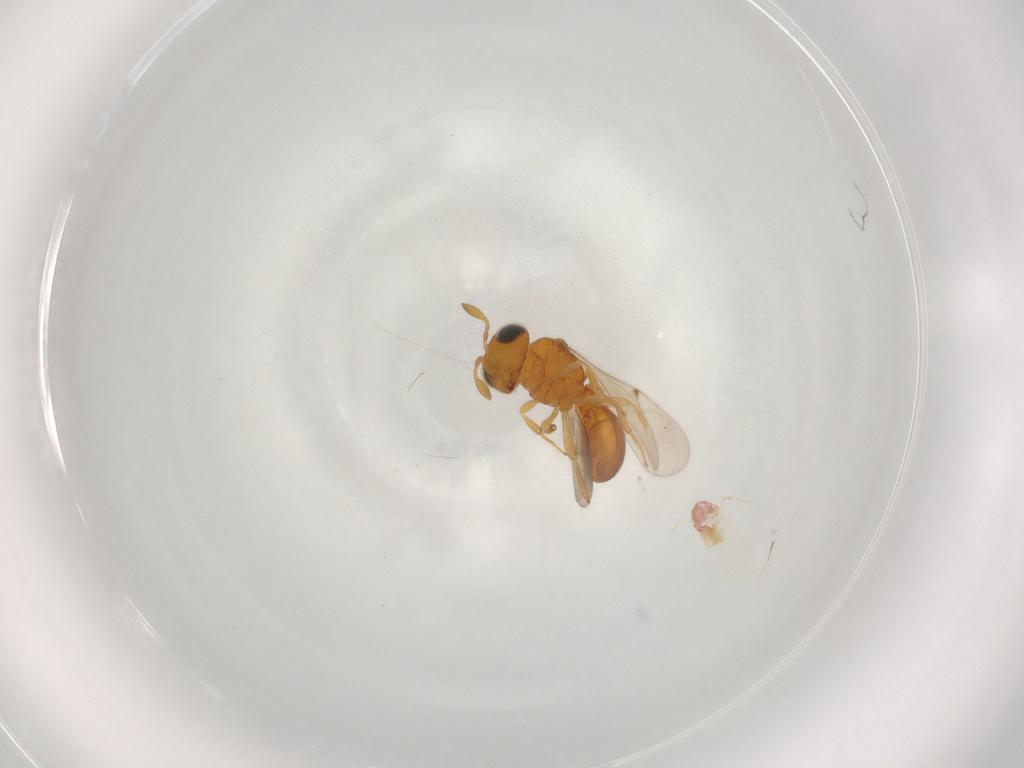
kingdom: Animalia
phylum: Arthropoda
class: Insecta
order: Hymenoptera
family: Scelionidae
